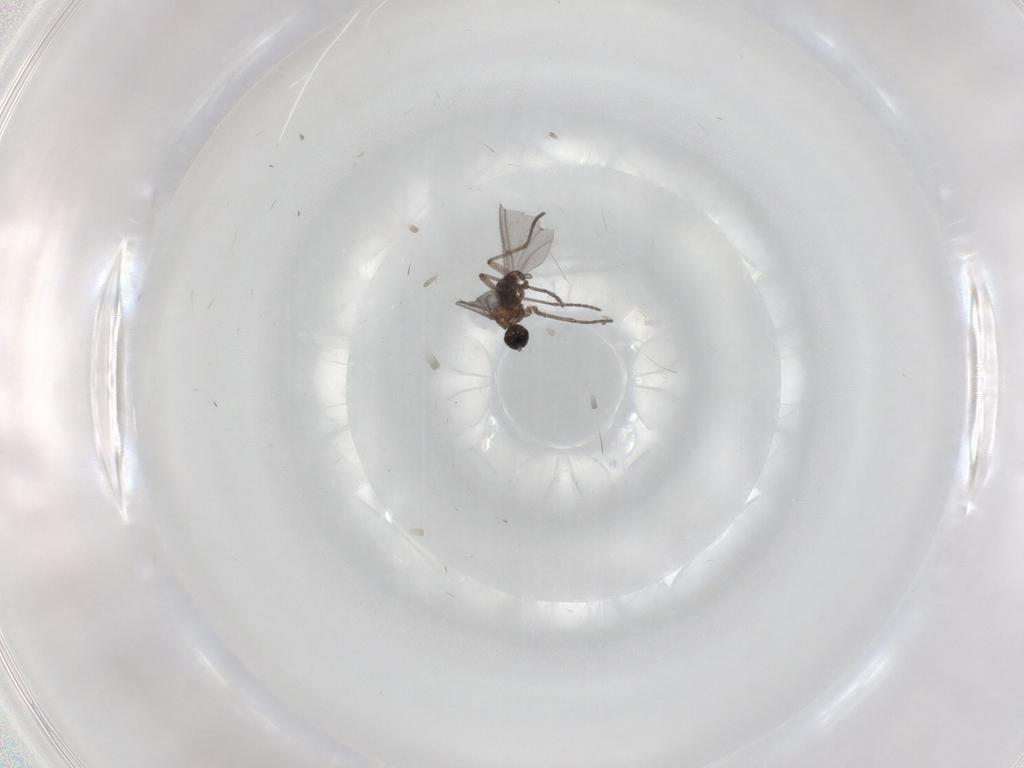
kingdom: Animalia
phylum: Arthropoda
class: Insecta
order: Diptera
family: Sciaridae
